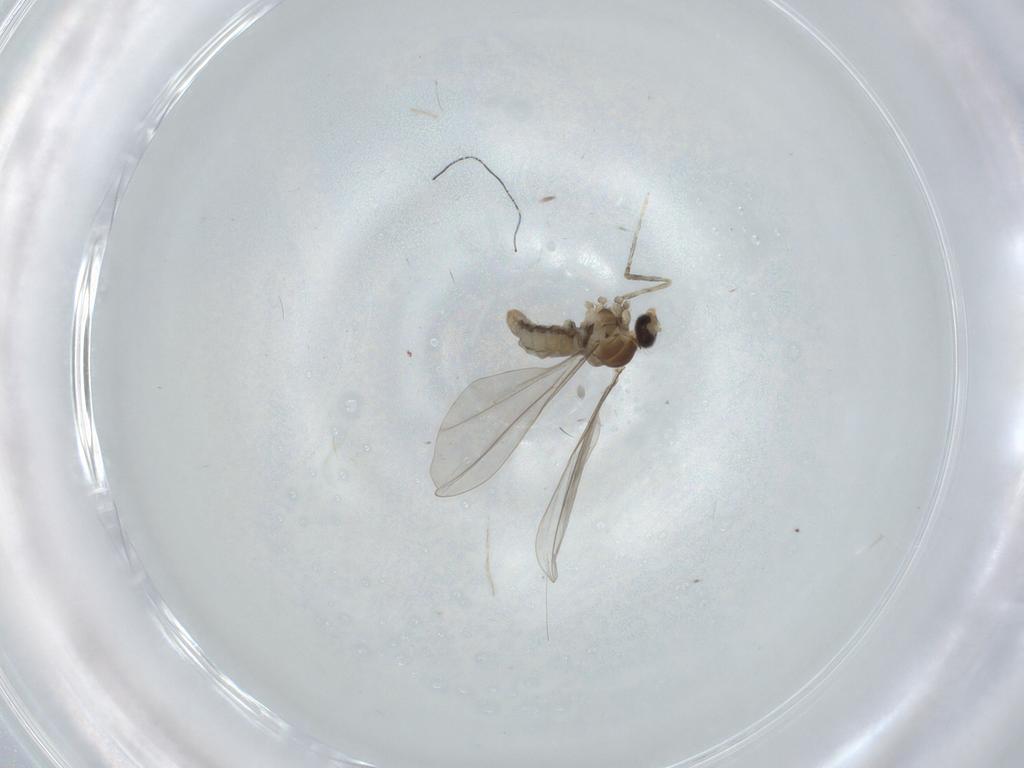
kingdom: Animalia
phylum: Arthropoda
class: Insecta
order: Diptera
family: Cecidomyiidae
